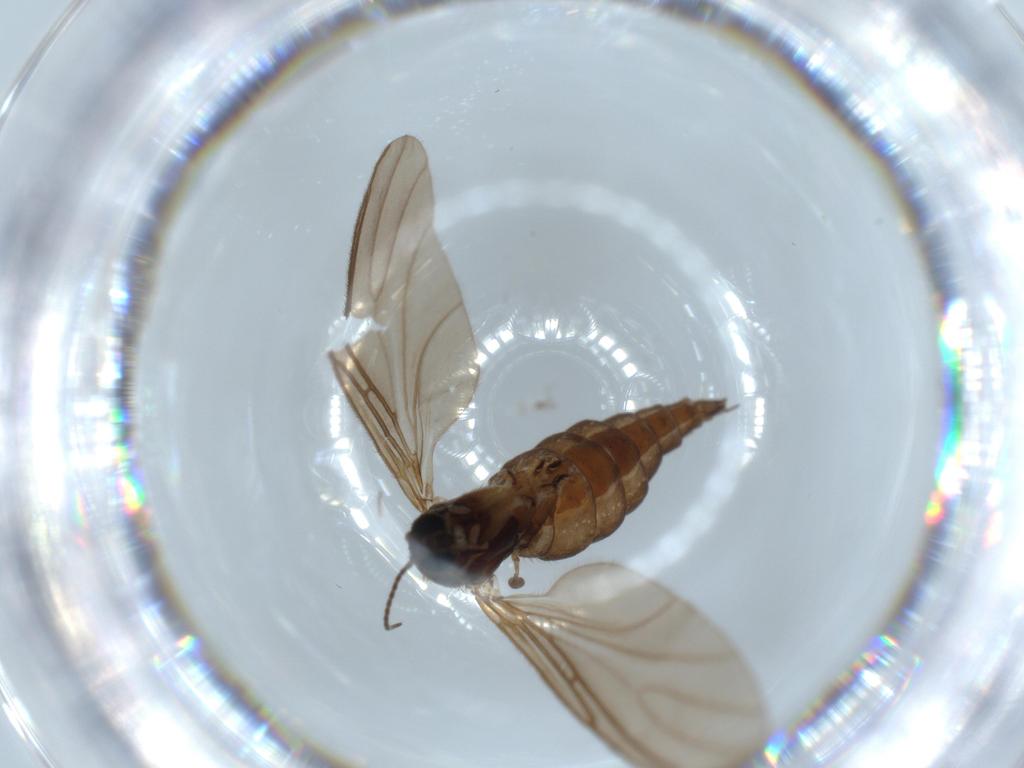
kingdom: Animalia
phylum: Arthropoda
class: Insecta
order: Diptera
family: Sciaridae
